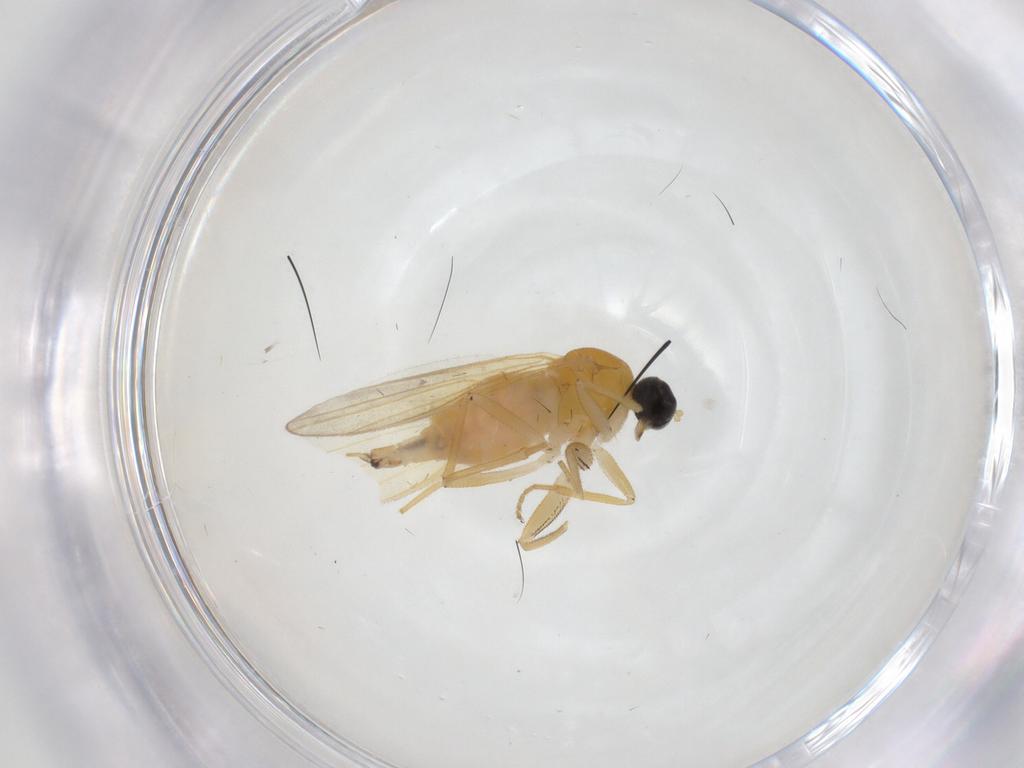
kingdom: Animalia
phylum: Arthropoda
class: Insecta
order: Diptera
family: Hybotidae
